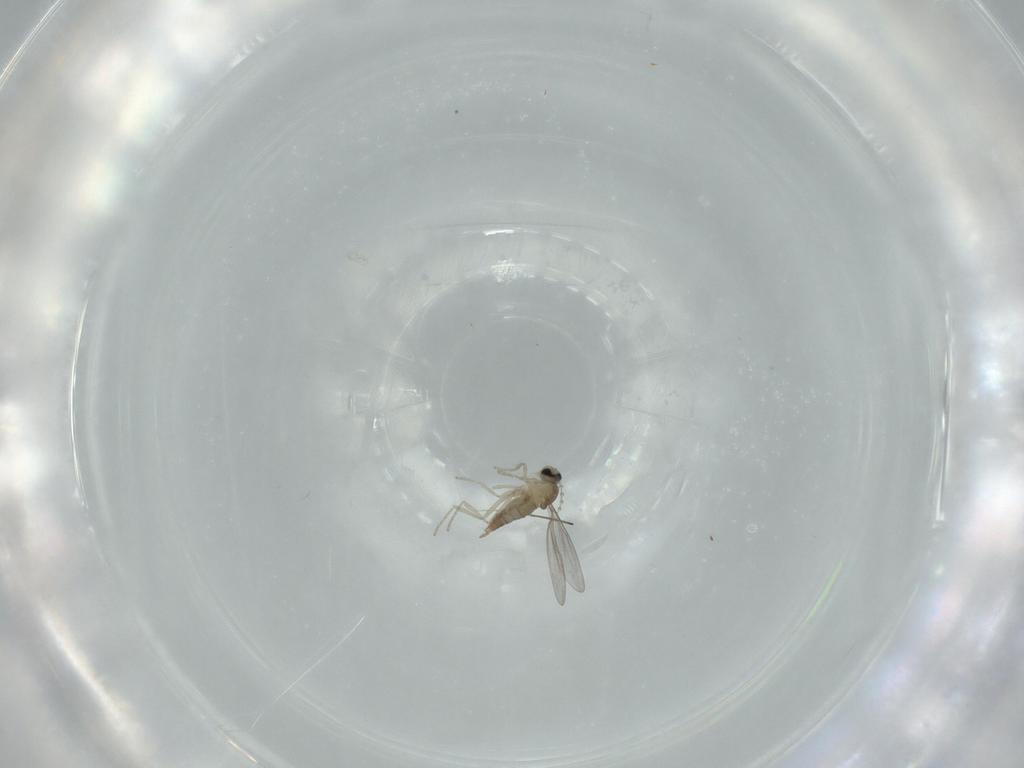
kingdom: Animalia
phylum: Arthropoda
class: Insecta
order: Diptera
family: Cecidomyiidae
